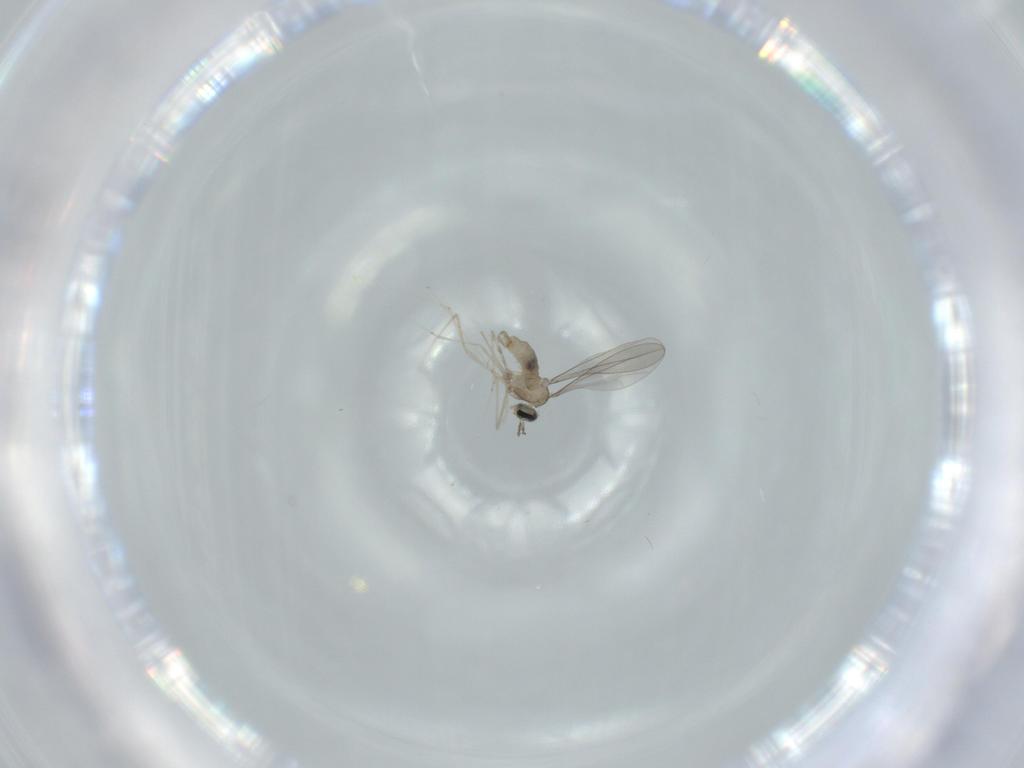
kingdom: Animalia
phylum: Arthropoda
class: Insecta
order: Diptera
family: Cecidomyiidae
